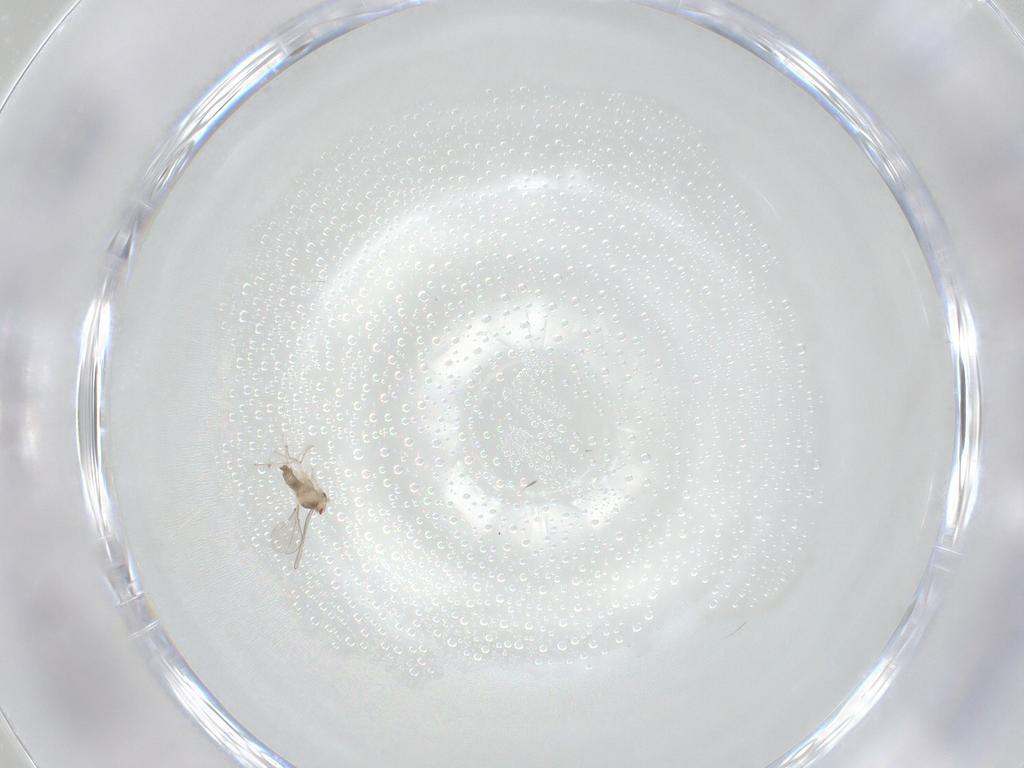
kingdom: Animalia
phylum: Arthropoda
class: Insecta
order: Diptera
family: Cecidomyiidae
